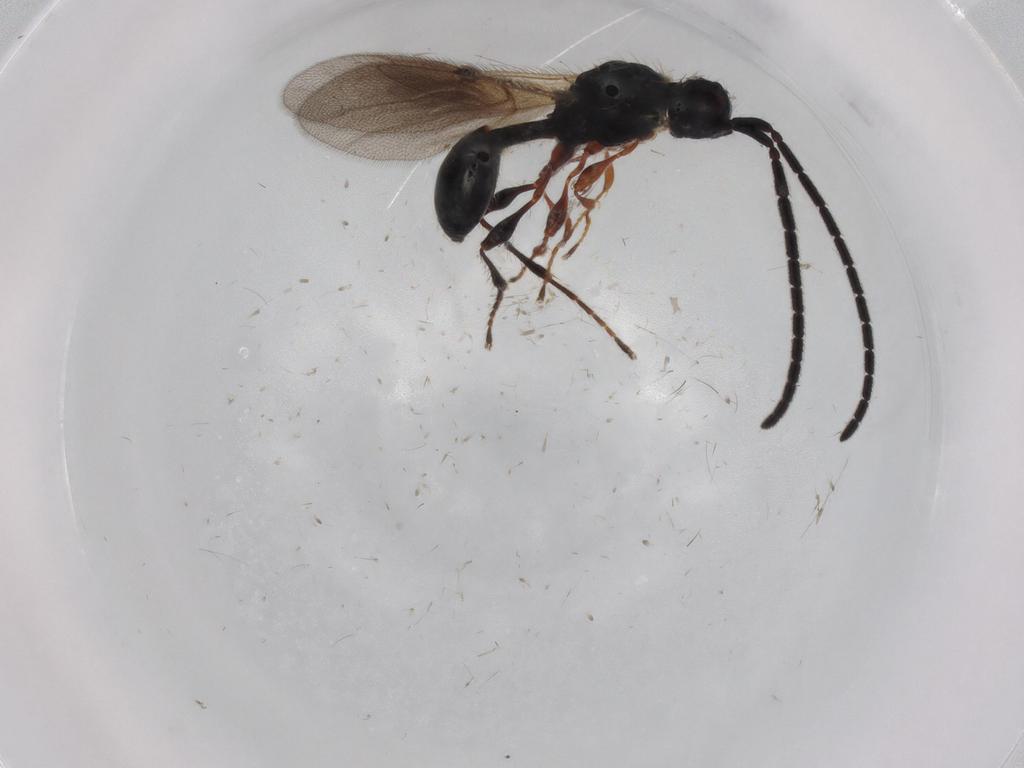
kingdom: Animalia
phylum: Arthropoda
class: Insecta
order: Hymenoptera
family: Diapriidae
